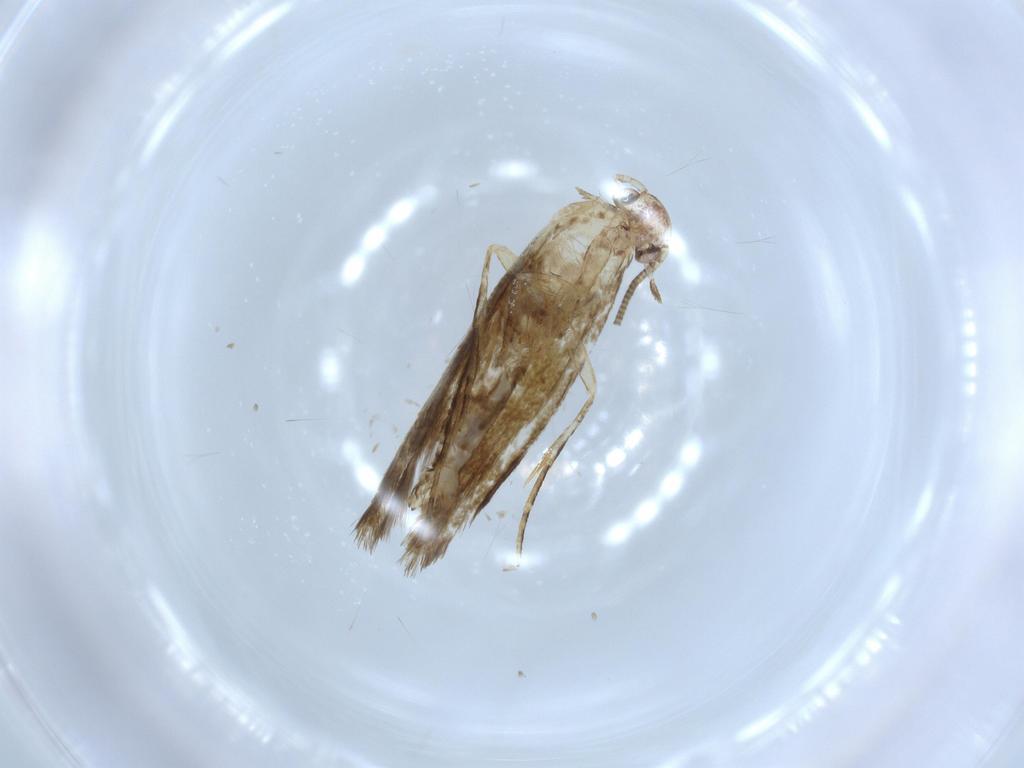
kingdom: Animalia
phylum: Arthropoda
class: Insecta
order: Lepidoptera
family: Tineidae
